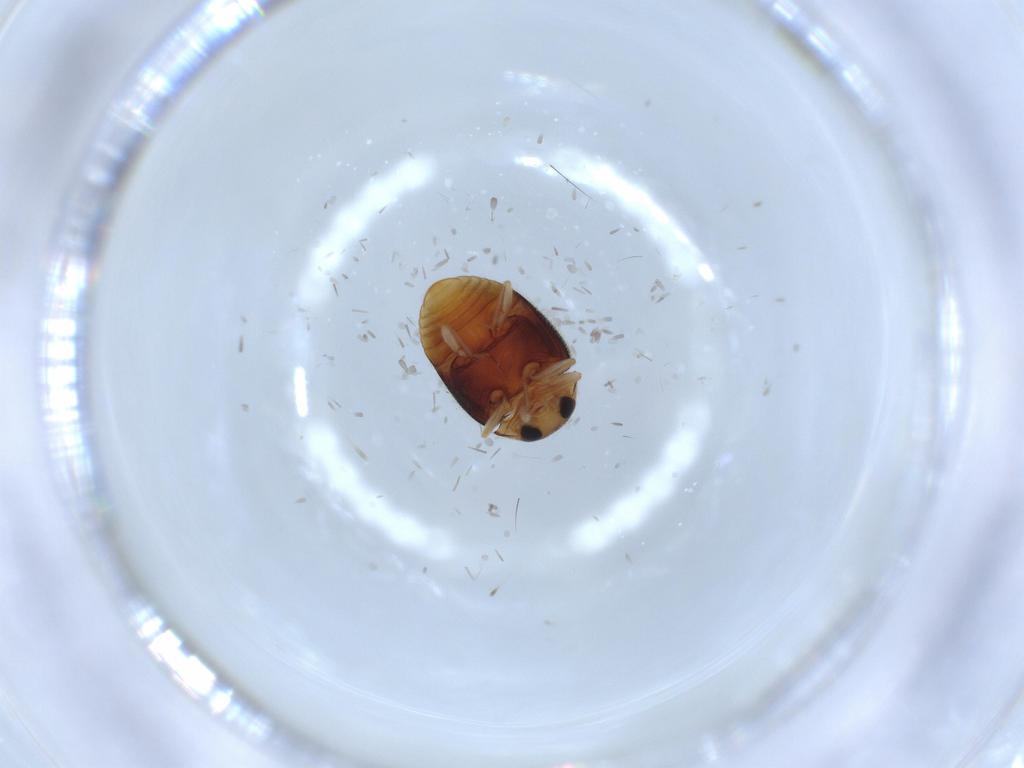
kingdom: Animalia
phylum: Arthropoda
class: Insecta
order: Coleoptera
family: Coccinellidae
